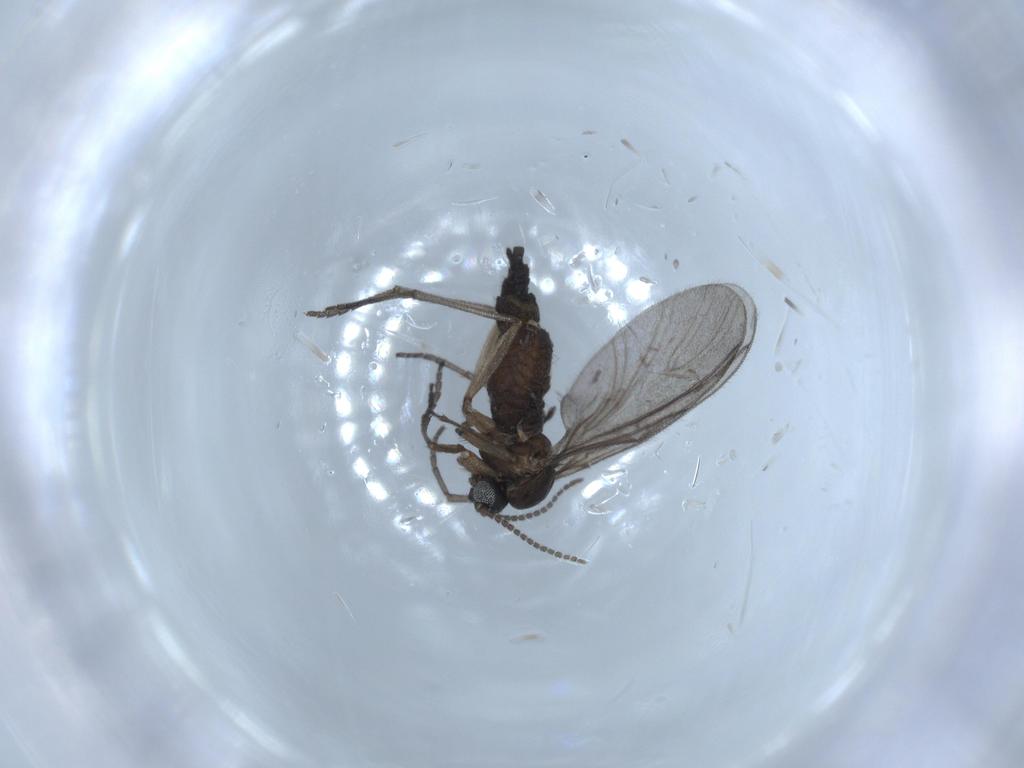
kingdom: Animalia
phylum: Arthropoda
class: Insecta
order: Diptera
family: Sciaridae
